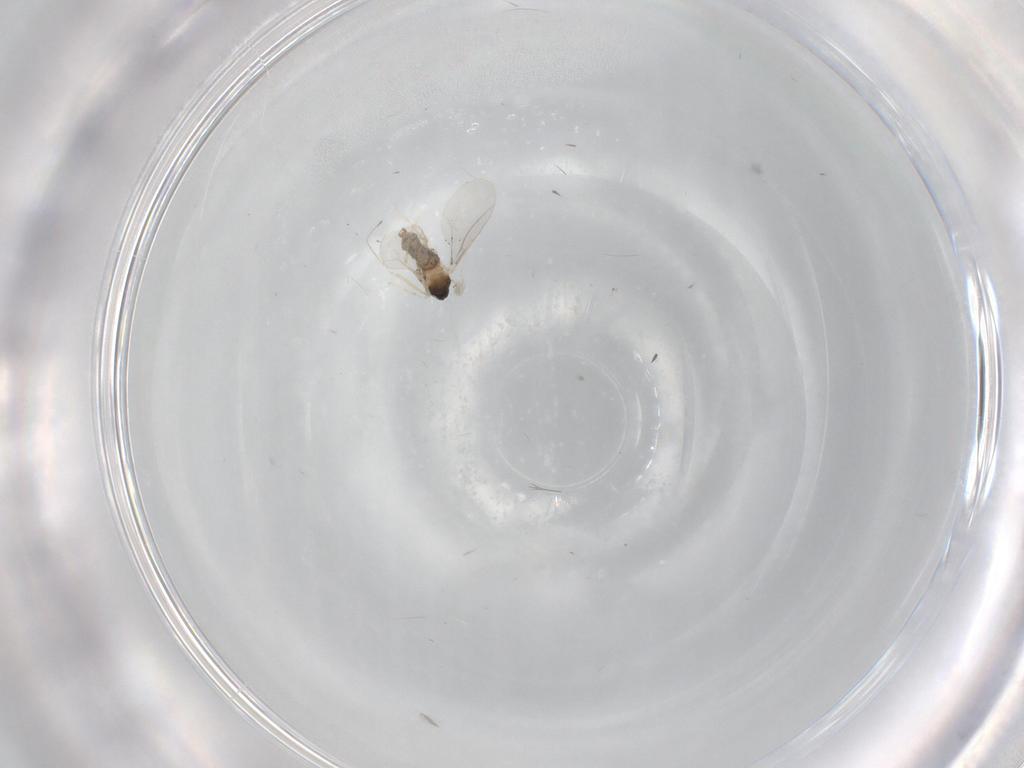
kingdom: Animalia
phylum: Arthropoda
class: Insecta
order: Diptera
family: Cecidomyiidae
